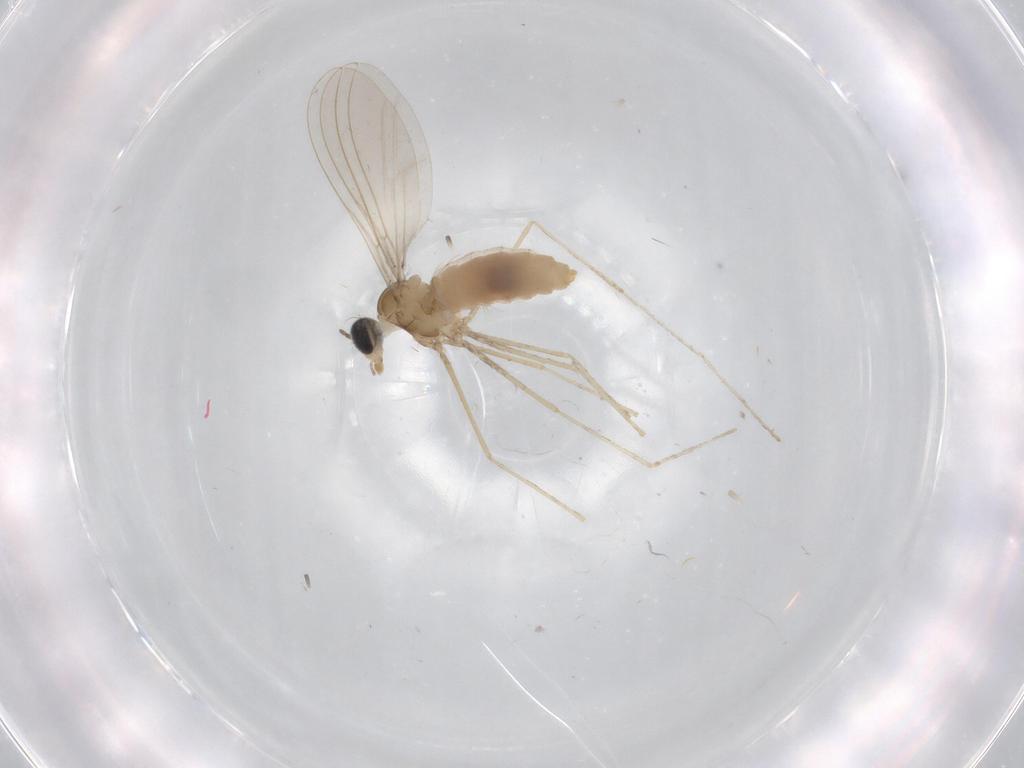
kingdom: Animalia
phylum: Arthropoda
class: Insecta
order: Diptera
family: Cecidomyiidae
